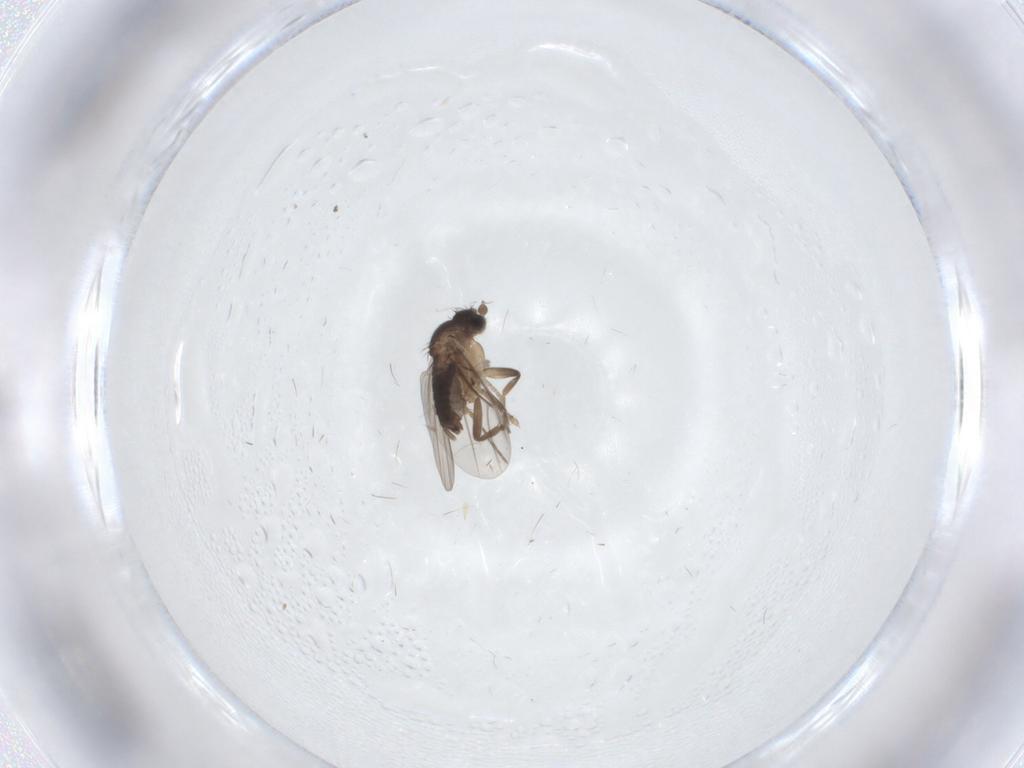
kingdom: Animalia
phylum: Arthropoda
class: Insecta
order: Diptera
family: Phoridae
